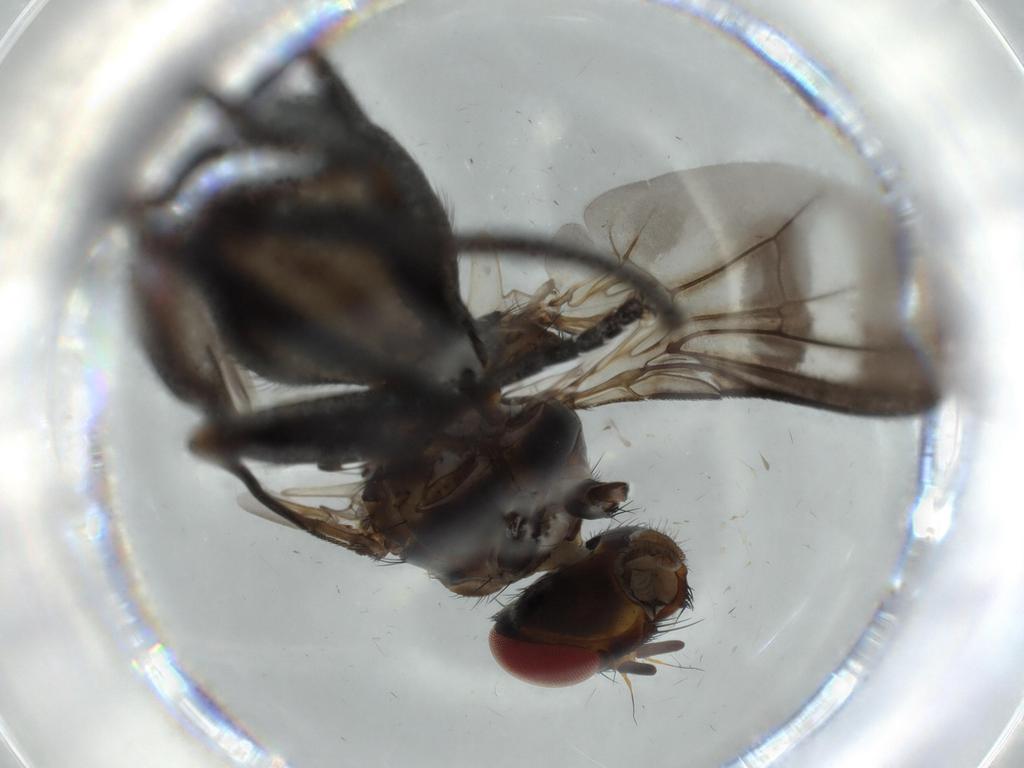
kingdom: Animalia
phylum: Arthropoda
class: Insecta
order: Diptera
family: Calliphoridae
